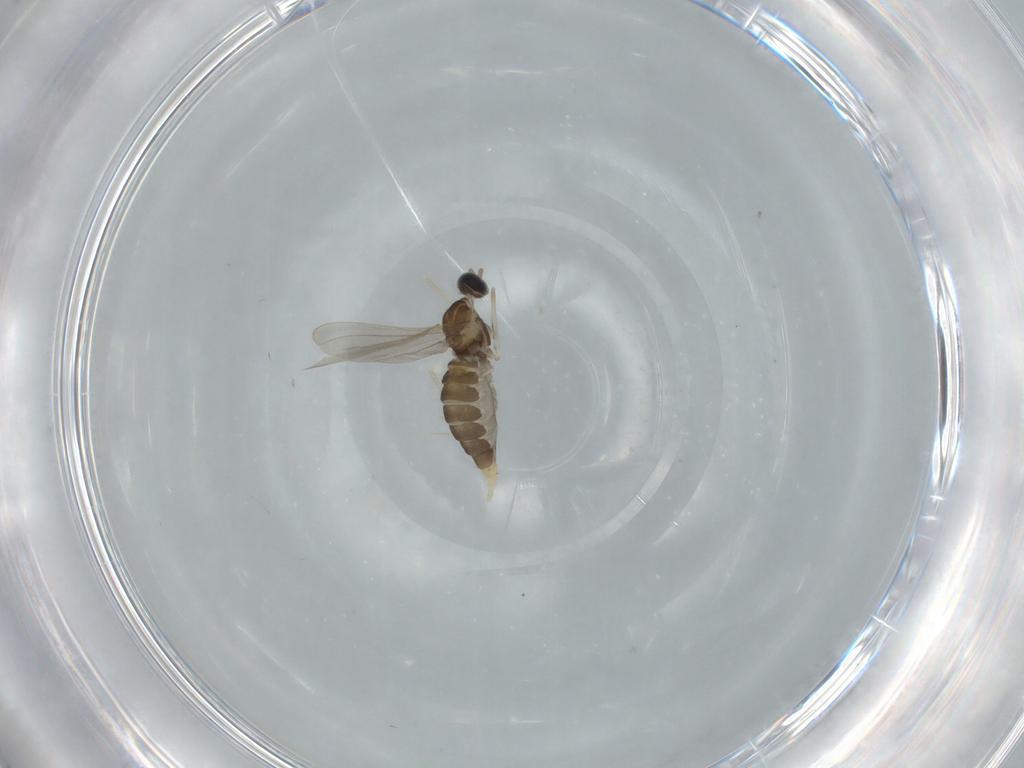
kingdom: Animalia
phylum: Arthropoda
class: Insecta
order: Diptera
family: Cecidomyiidae
